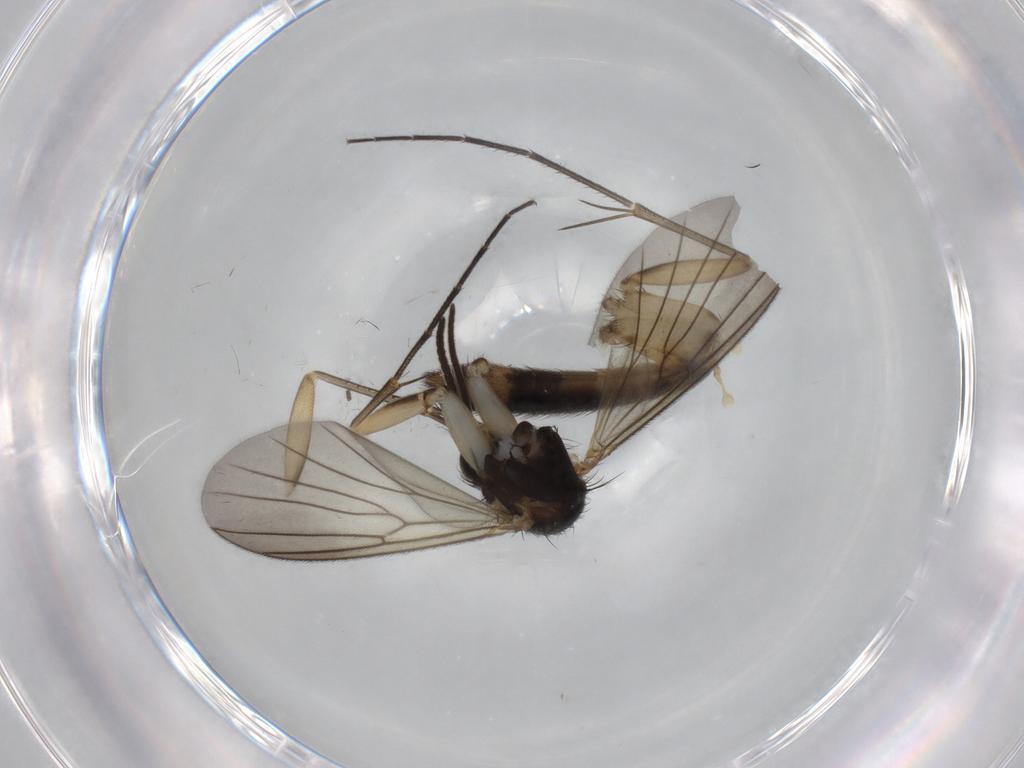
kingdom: Animalia
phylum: Arthropoda
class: Insecta
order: Diptera
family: Mycetophilidae
